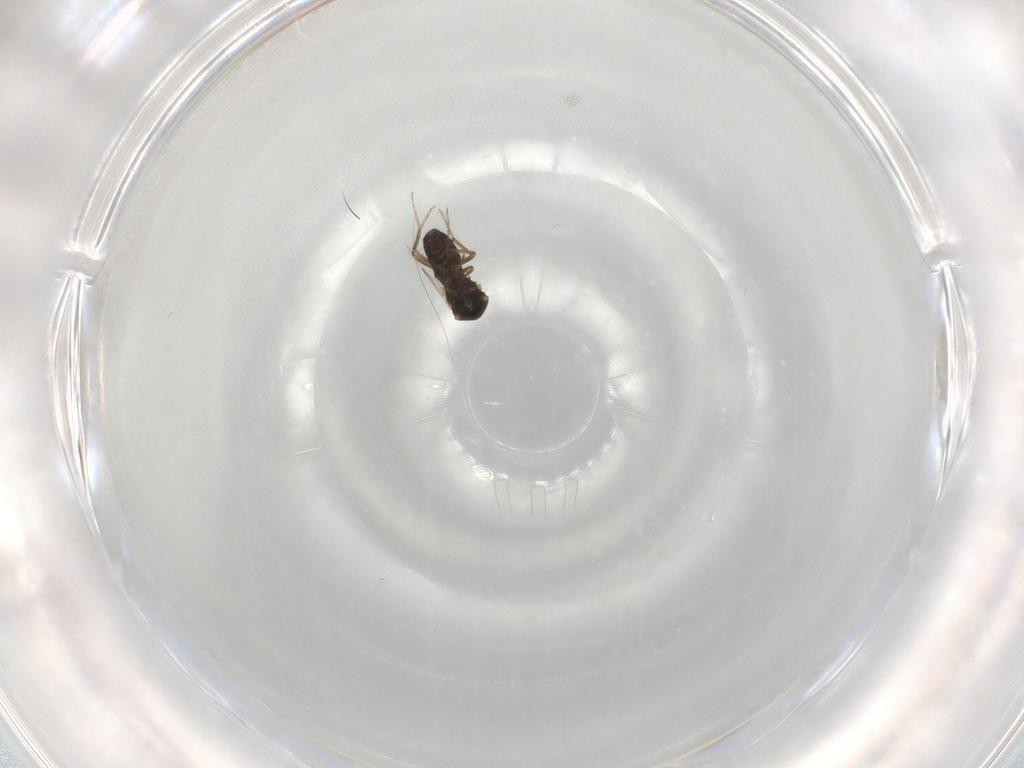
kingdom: Animalia
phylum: Arthropoda
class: Insecta
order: Diptera
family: Ceratopogonidae
